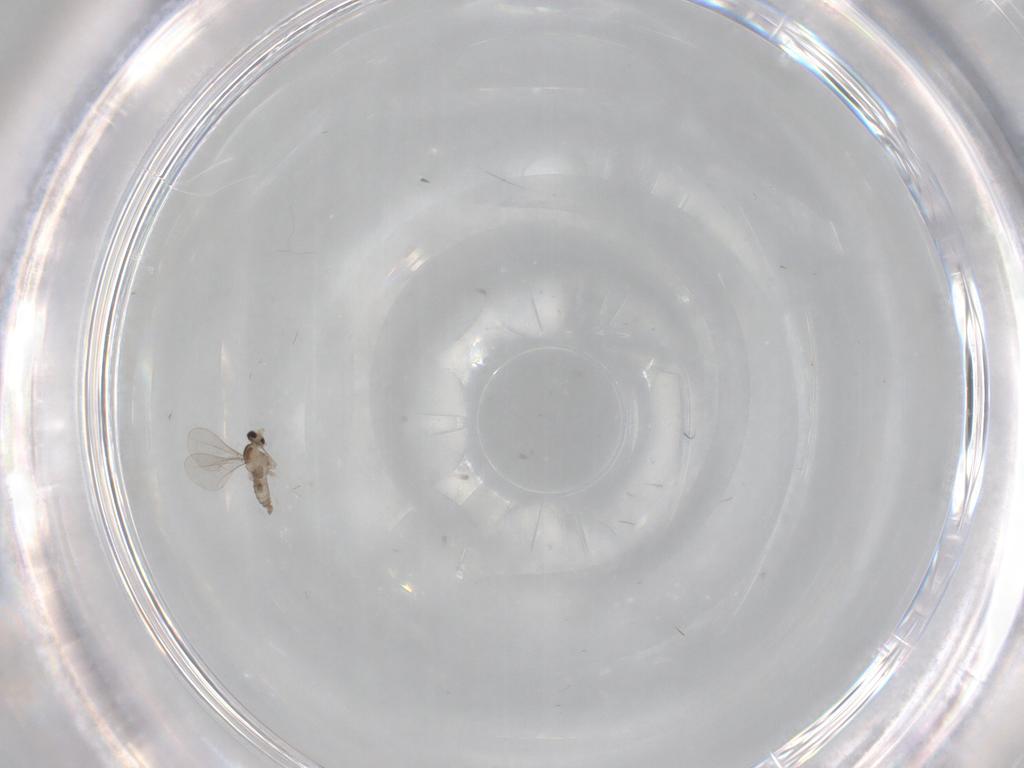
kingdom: Animalia
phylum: Arthropoda
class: Insecta
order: Diptera
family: Cecidomyiidae
